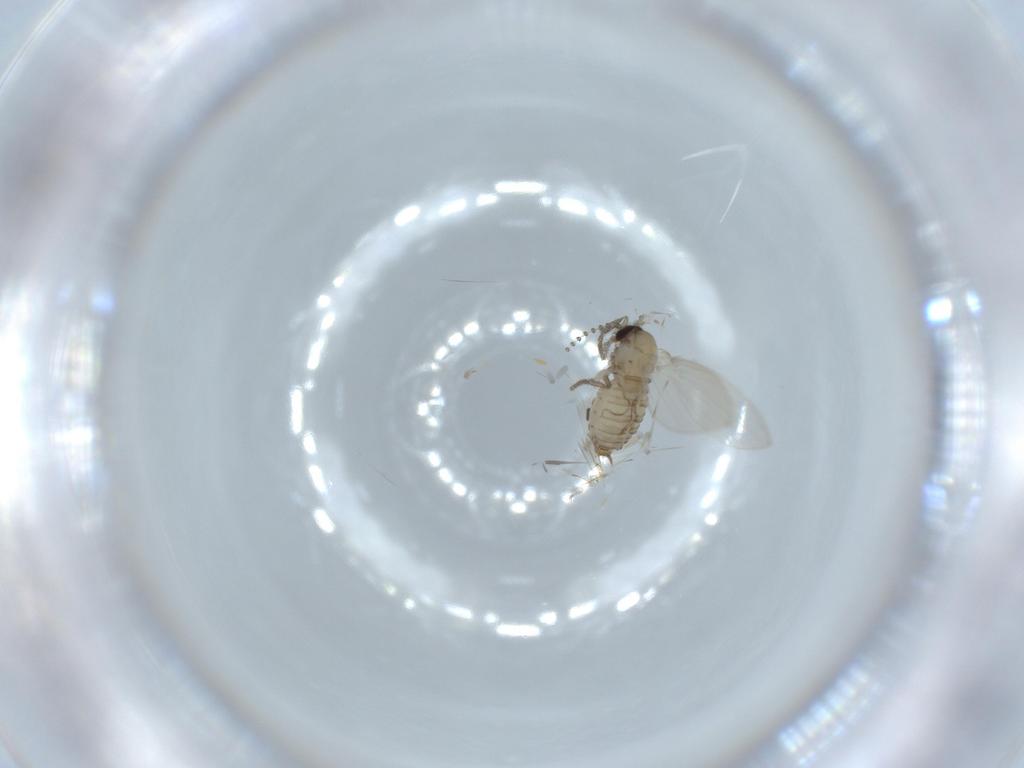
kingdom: Animalia
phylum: Arthropoda
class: Insecta
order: Diptera
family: Psychodidae
